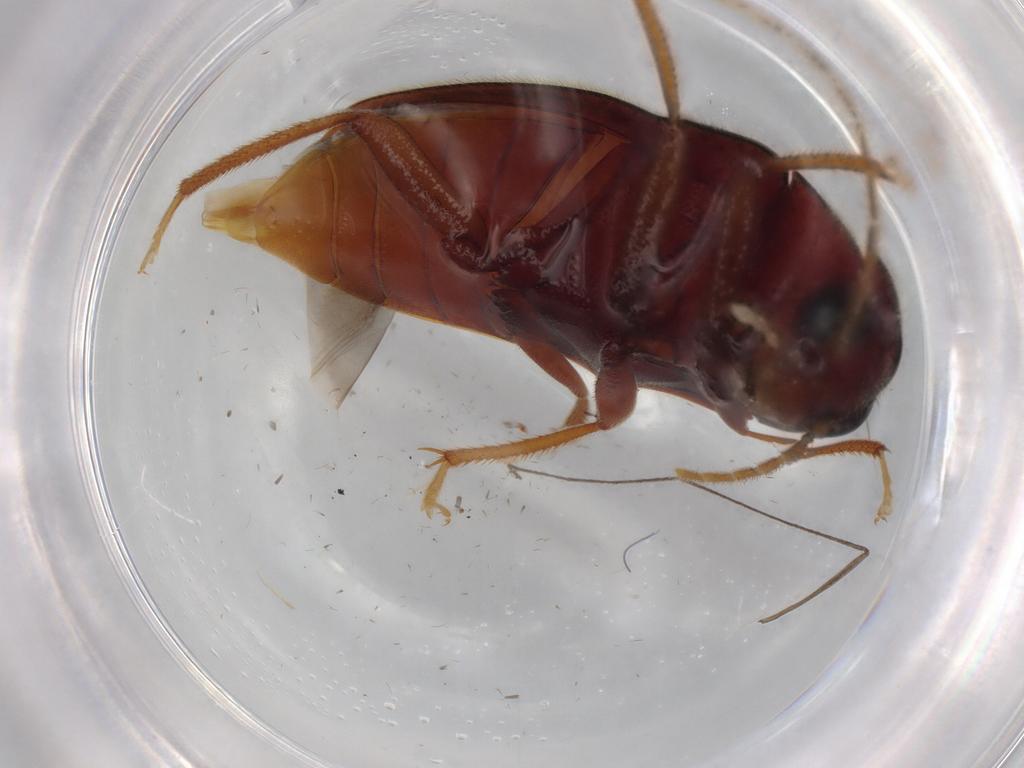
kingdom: Animalia
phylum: Arthropoda
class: Insecta
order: Coleoptera
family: Ptilodactylidae
